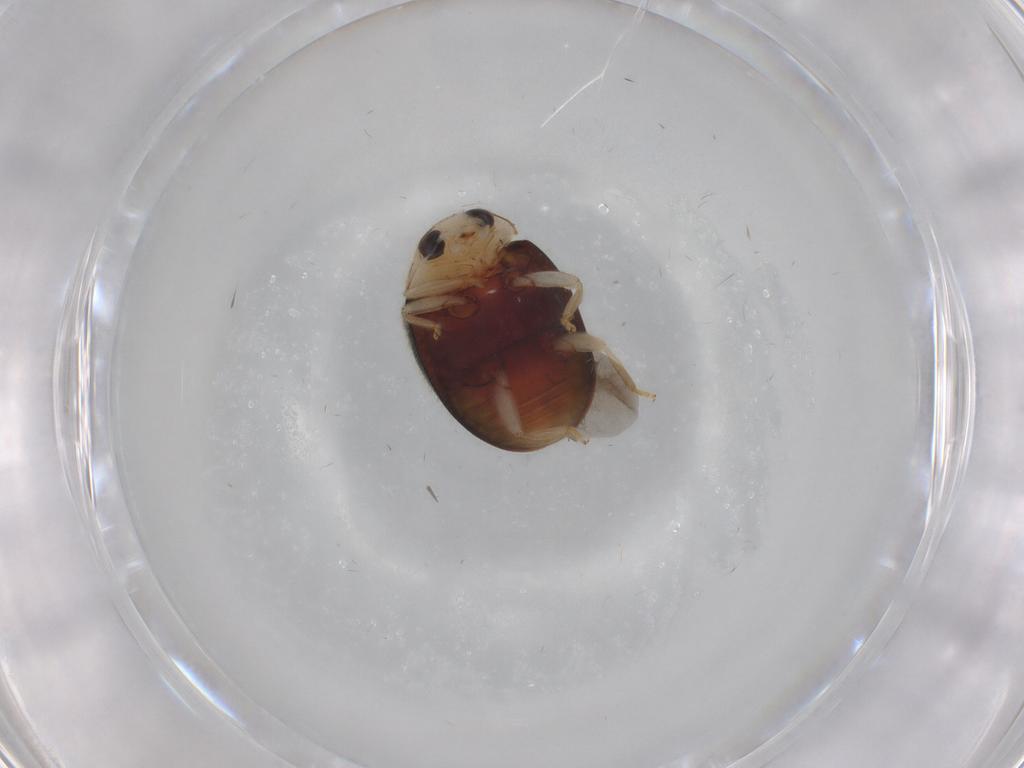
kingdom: Animalia
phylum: Arthropoda
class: Insecta
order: Coleoptera
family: Coccinellidae
